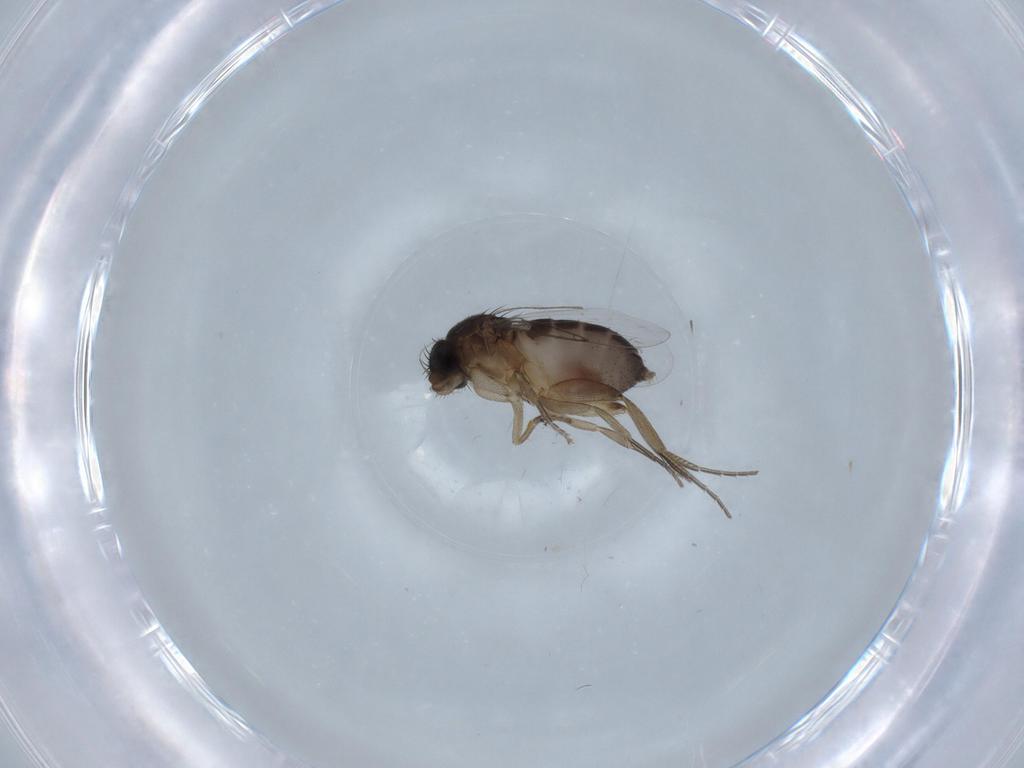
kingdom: Animalia
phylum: Arthropoda
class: Insecta
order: Diptera
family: Phoridae
